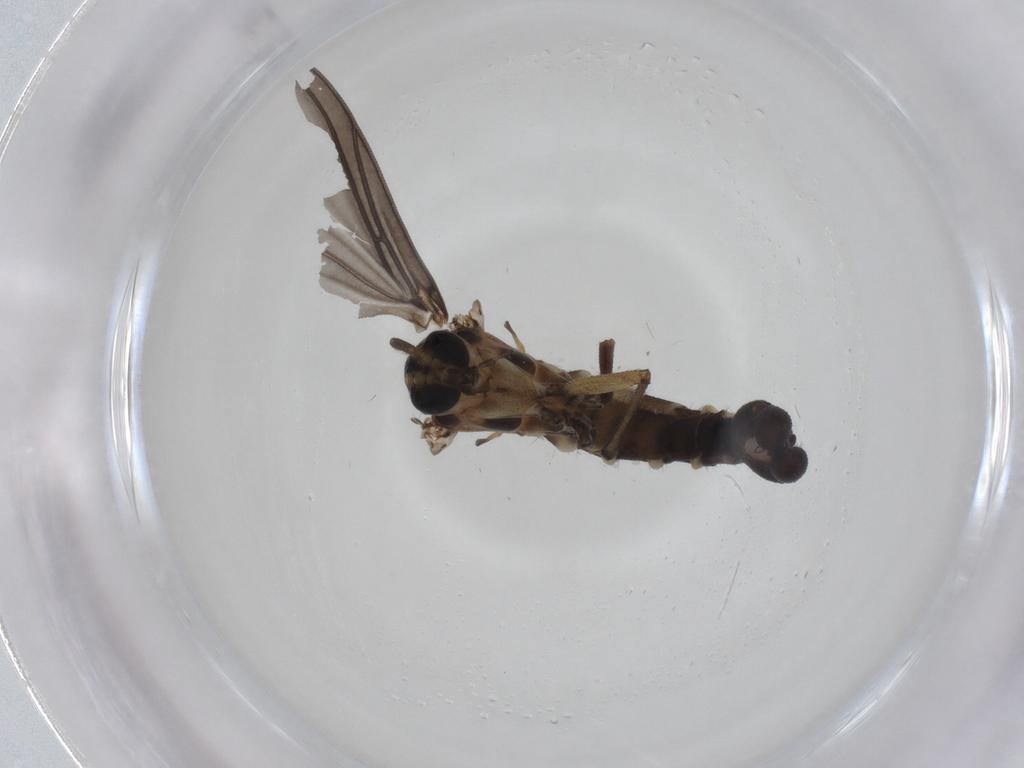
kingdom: Animalia
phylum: Arthropoda
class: Insecta
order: Diptera
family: Sciaridae
